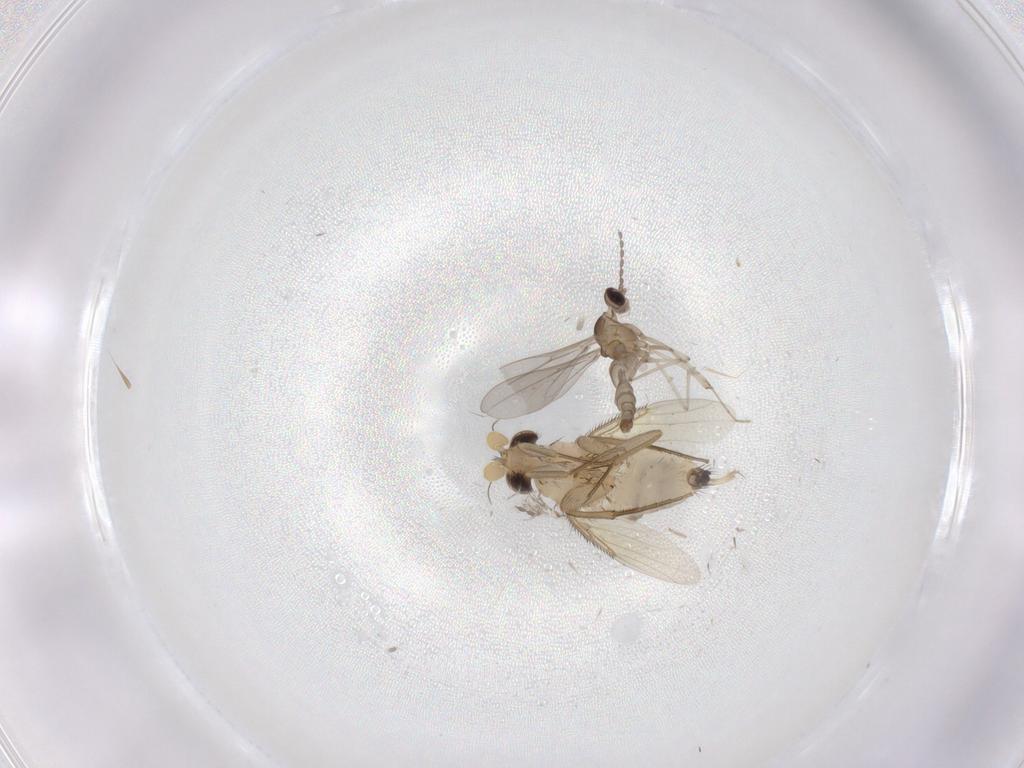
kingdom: Animalia
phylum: Arthropoda
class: Insecta
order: Diptera
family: Phoridae
